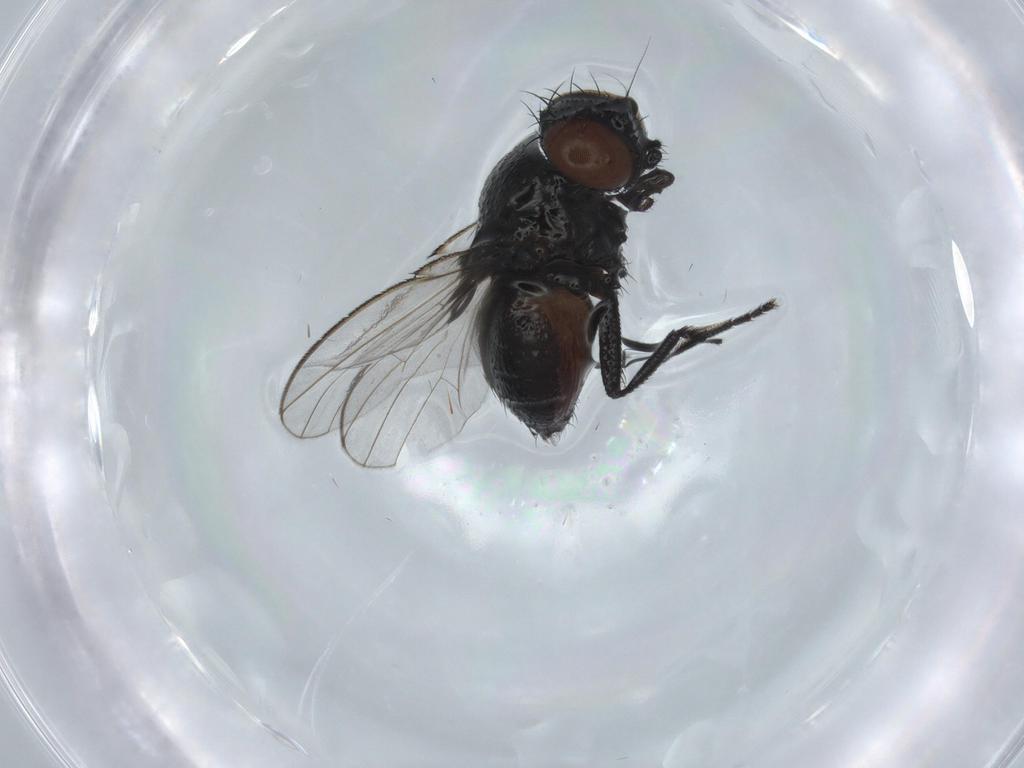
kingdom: Animalia
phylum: Arthropoda
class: Insecta
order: Diptera
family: Milichiidae
